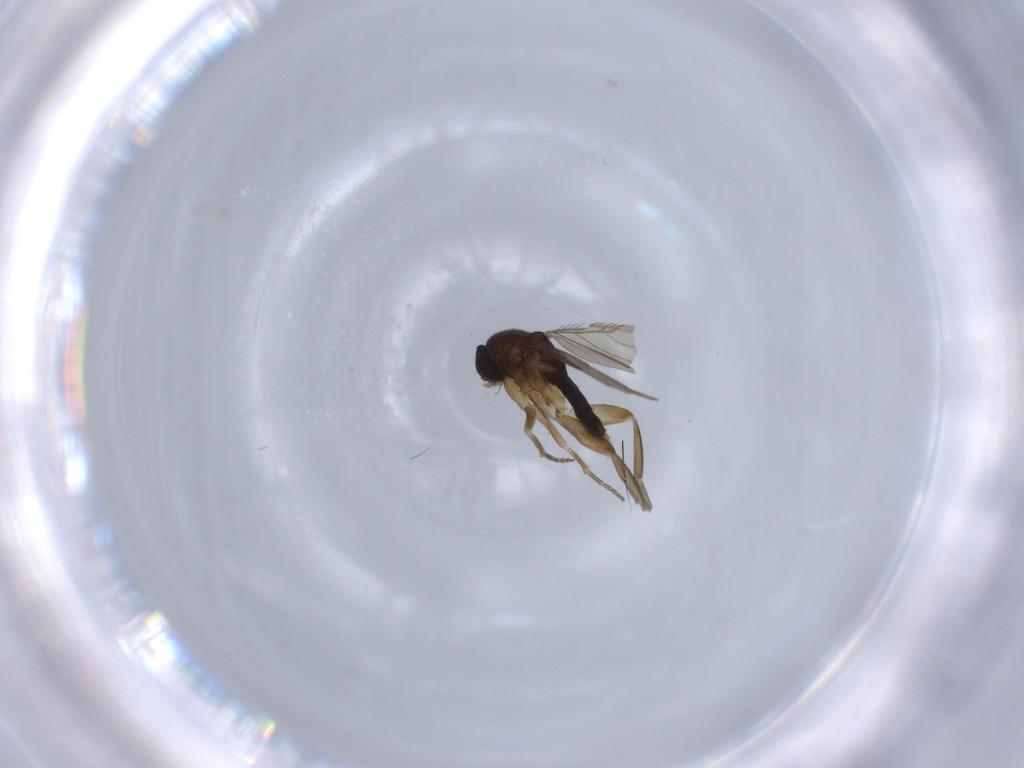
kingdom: Animalia
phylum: Arthropoda
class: Insecta
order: Diptera
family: Phoridae
